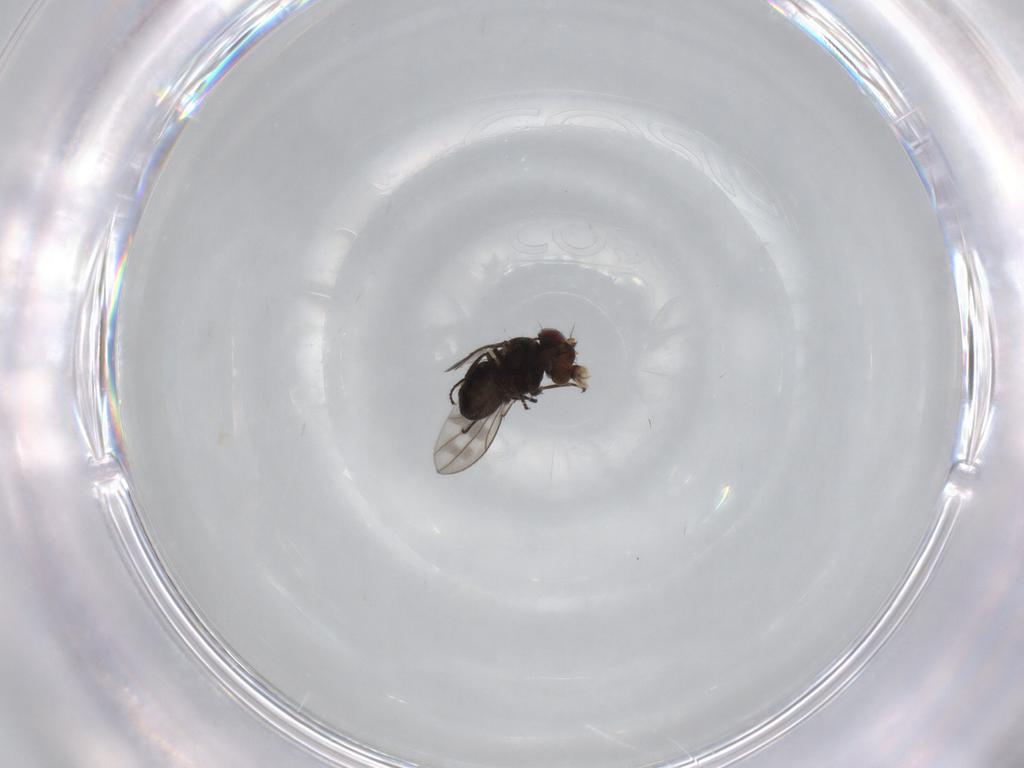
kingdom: Animalia
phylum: Arthropoda
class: Insecta
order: Diptera
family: Ephydridae
